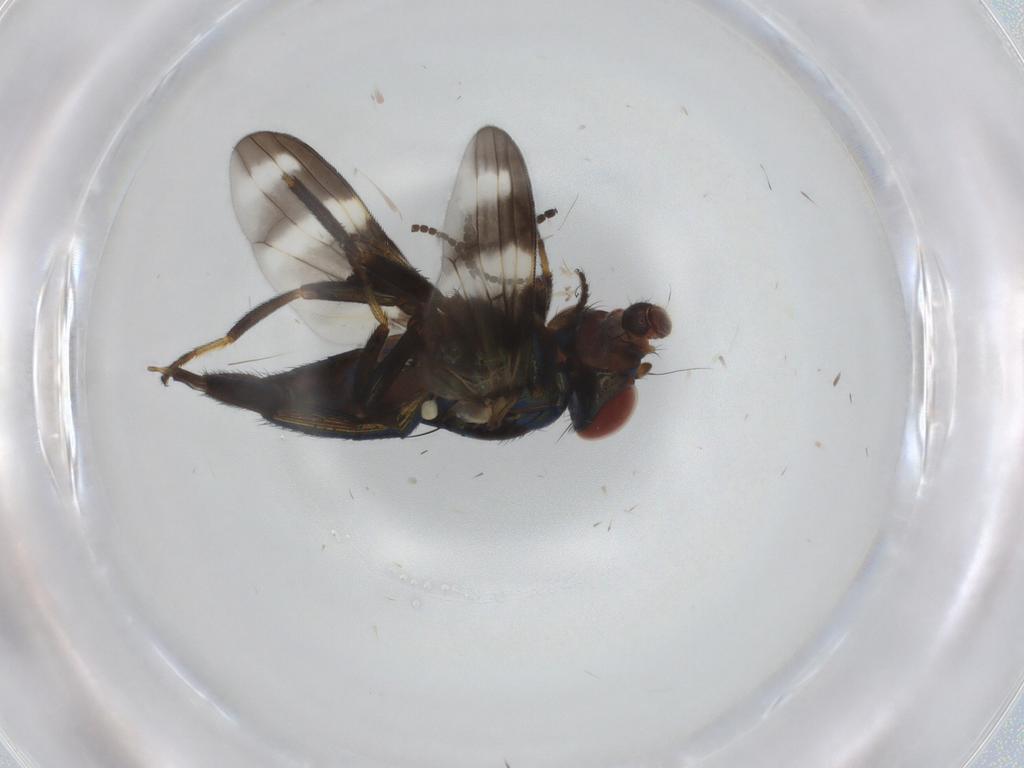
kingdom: Animalia
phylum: Arthropoda
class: Insecta
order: Diptera
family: Ulidiidae
